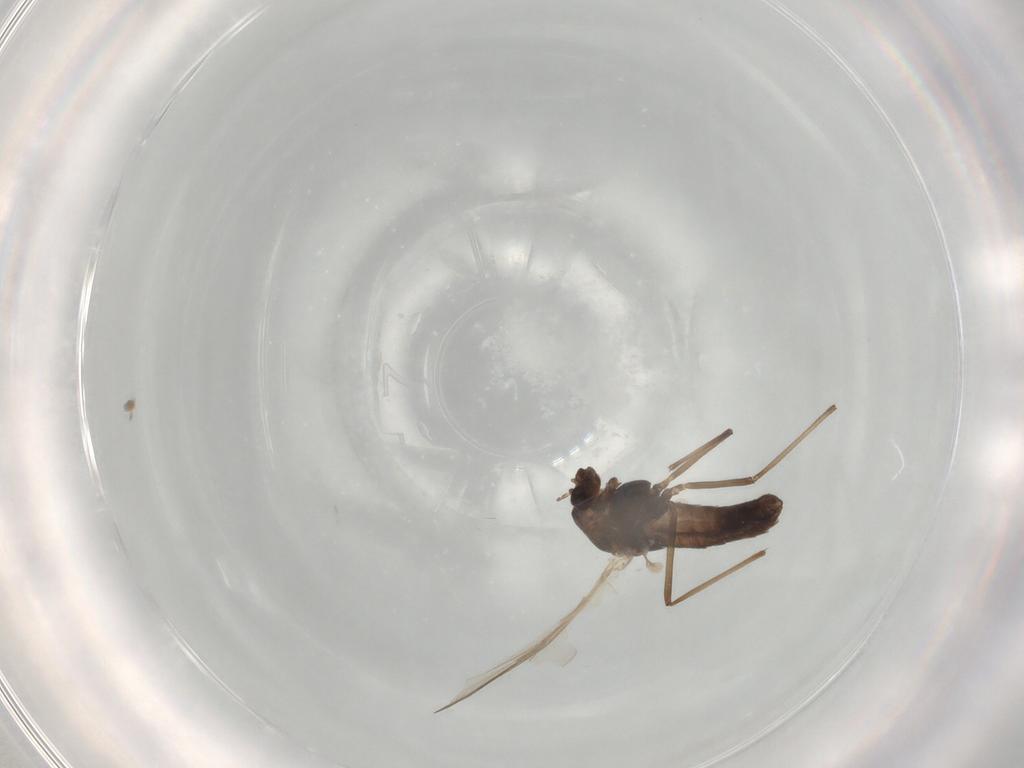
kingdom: Animalia
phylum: Arthropoda
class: Insecta
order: Diptera
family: Chironomidae
